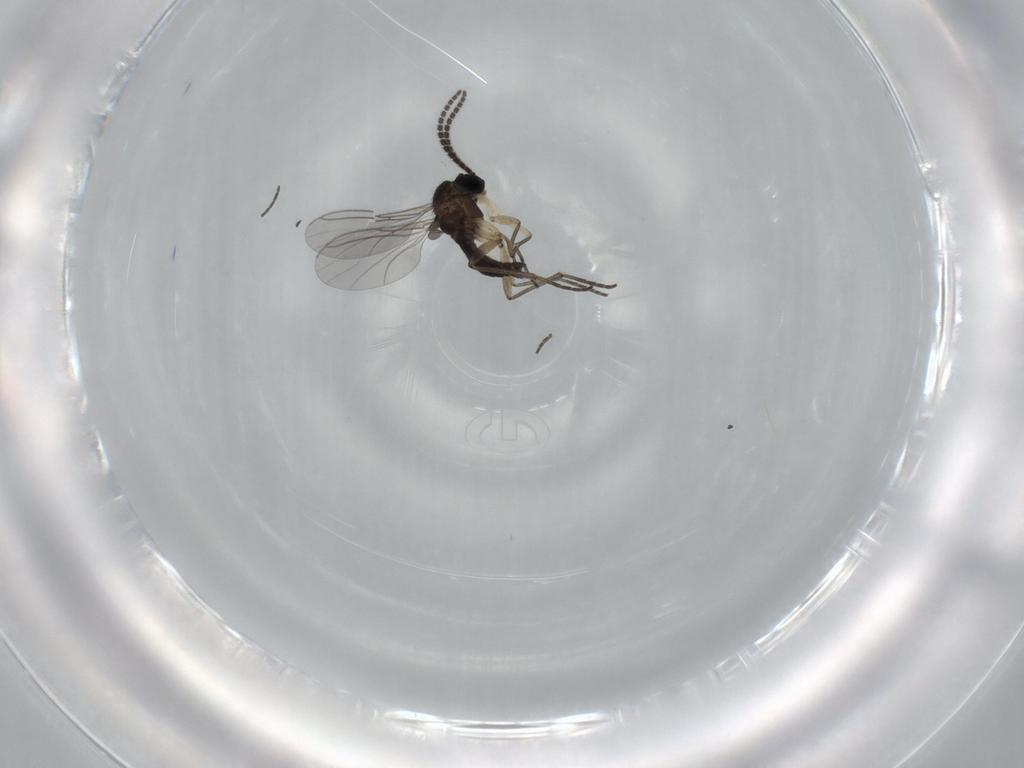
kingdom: Animalia
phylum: Arthropoda
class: Insecta
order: Diptera
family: Sciaridae
